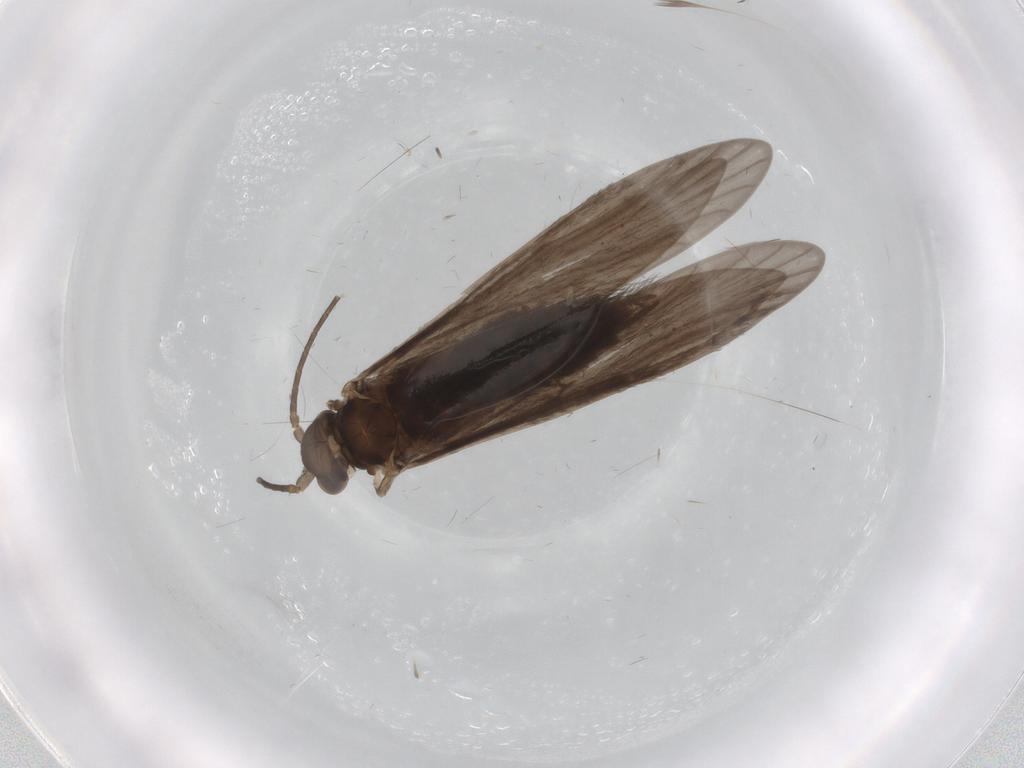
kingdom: Animalia
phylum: Arthropoda
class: Insecta
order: Trichoptera
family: Xiphocentronidae
